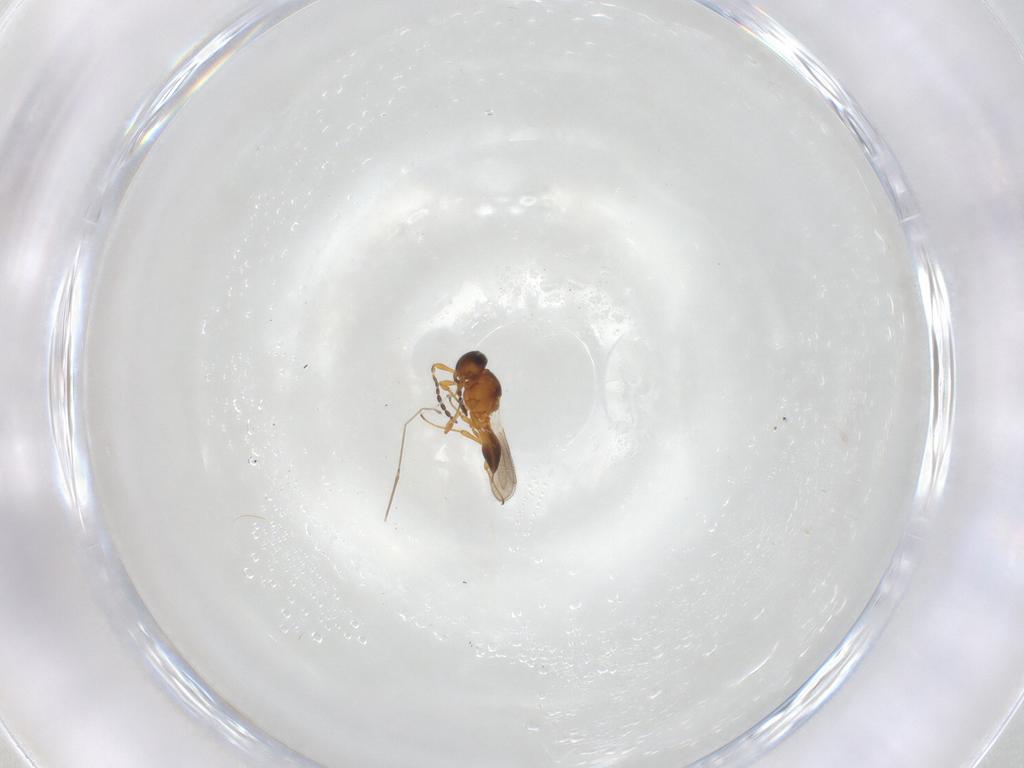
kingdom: Animalia
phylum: Arthropoda
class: Insecta
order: Hymenoptera
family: Platygastridae
